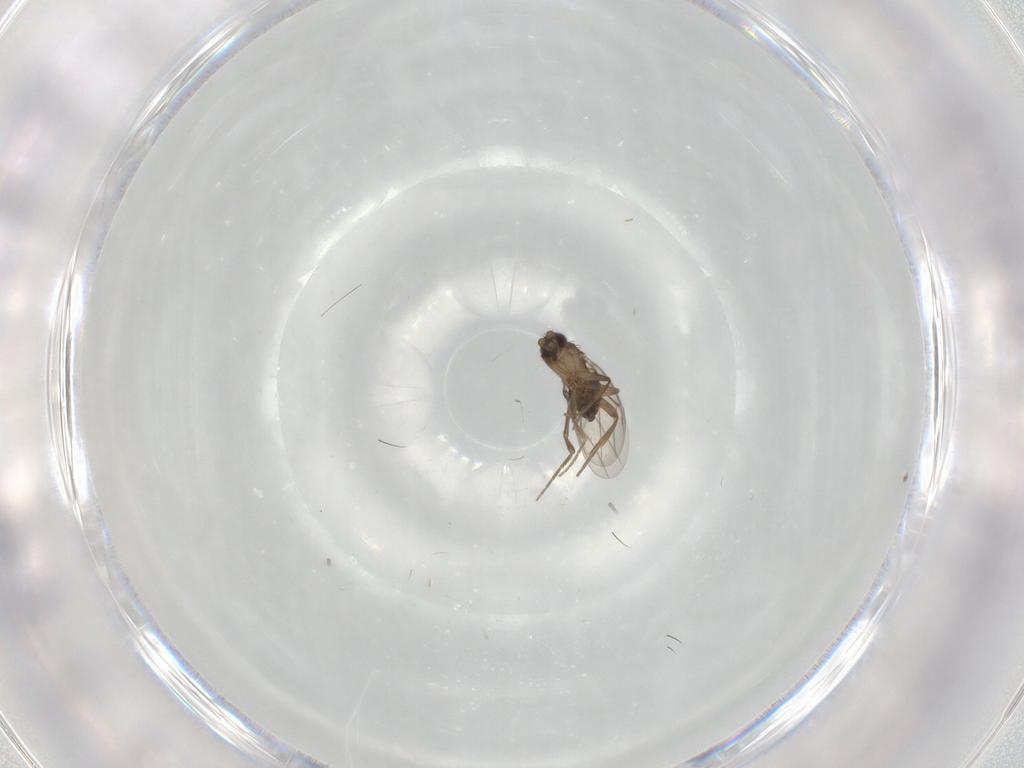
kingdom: Animalia
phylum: Arthropoda
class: Insecta
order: Diptera
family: Phoridae
